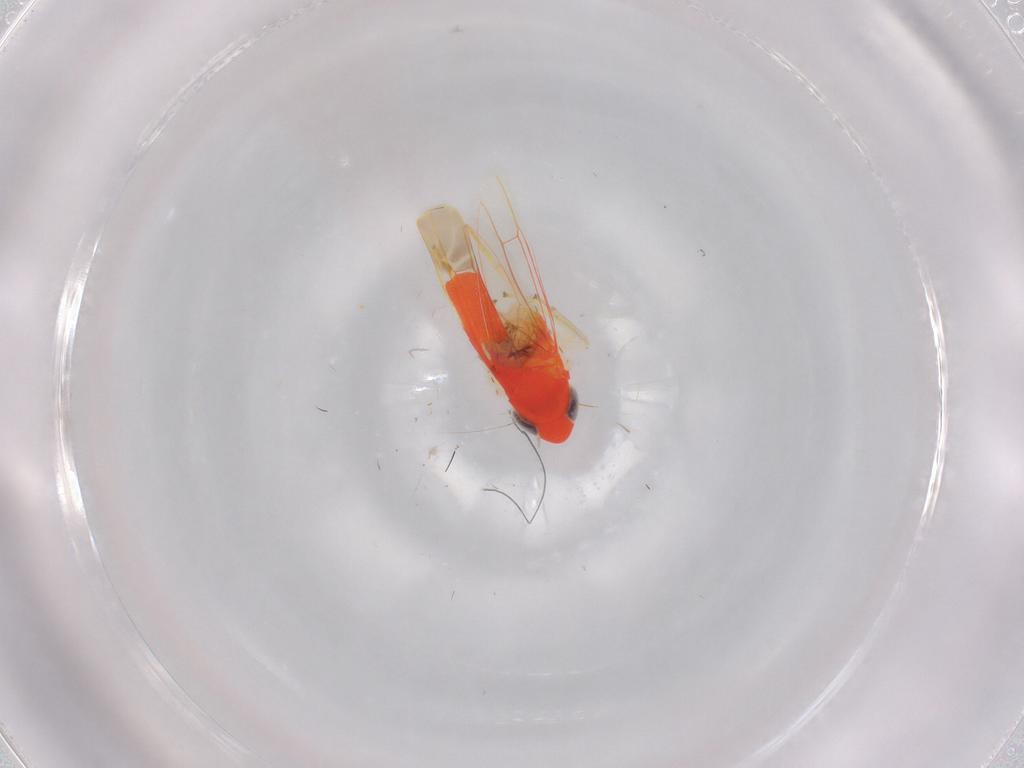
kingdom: Animalia
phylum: Arthropoda
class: Insecta
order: Hemiptera
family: Cicadellidae
